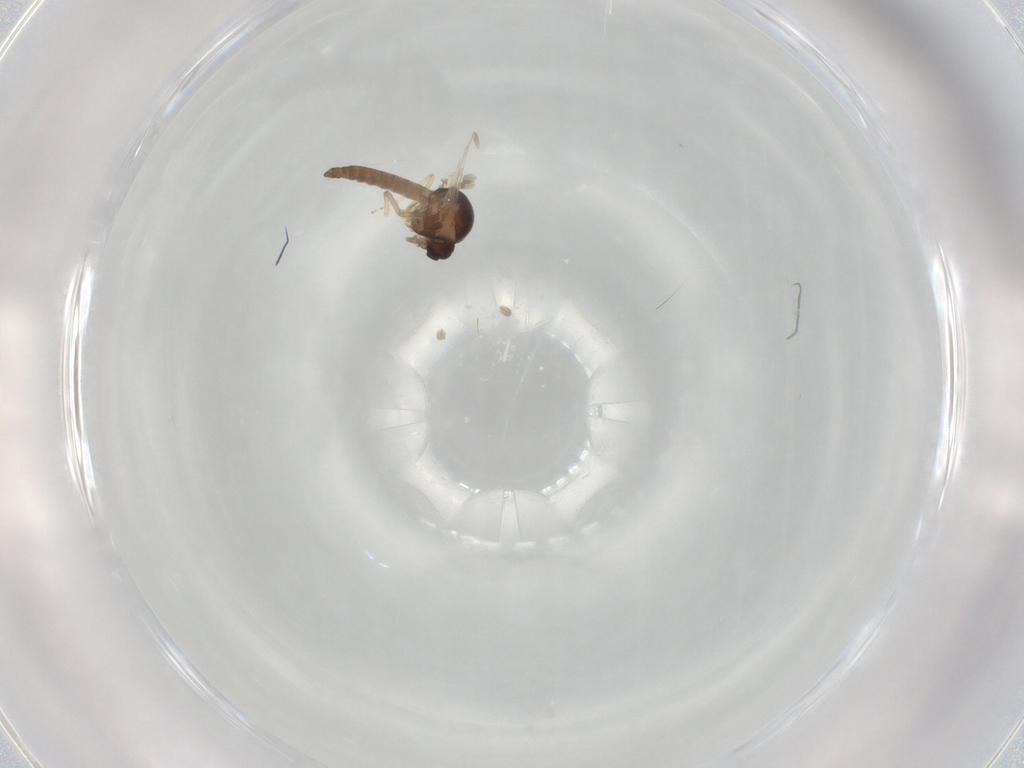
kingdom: Animalia
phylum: Arthropoda
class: Insecta
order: Diptera
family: Ceratopogonidae
